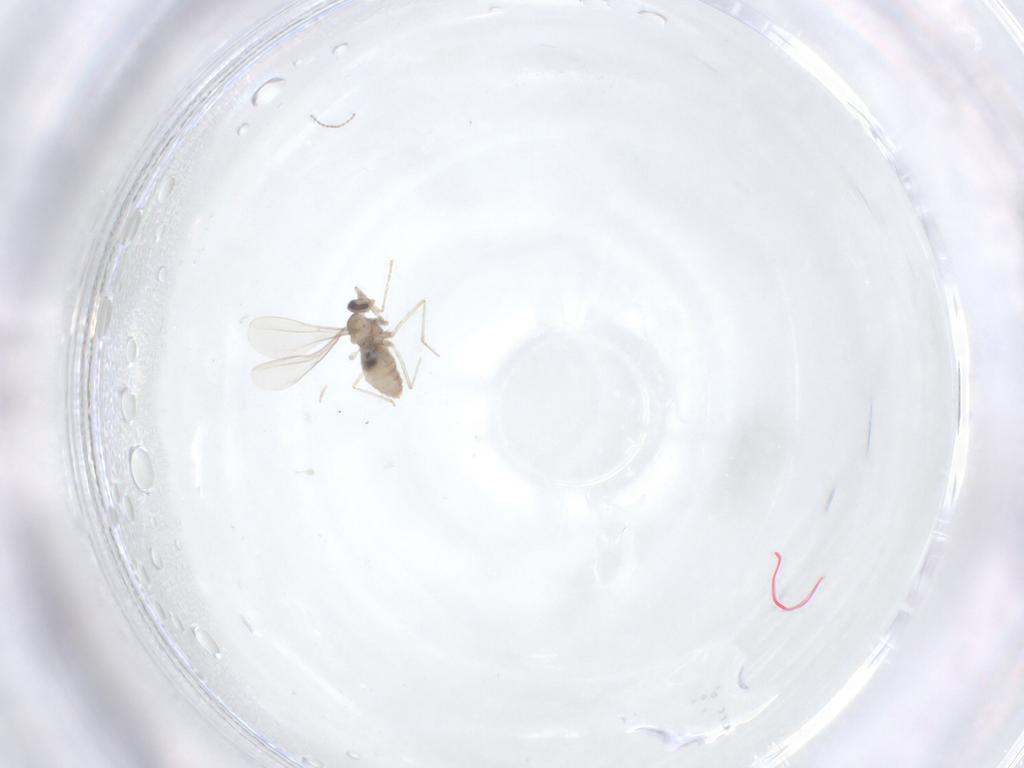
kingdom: Animalia
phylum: Arthropoda
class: Insecta
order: Diptera
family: Cecidomyiidae
